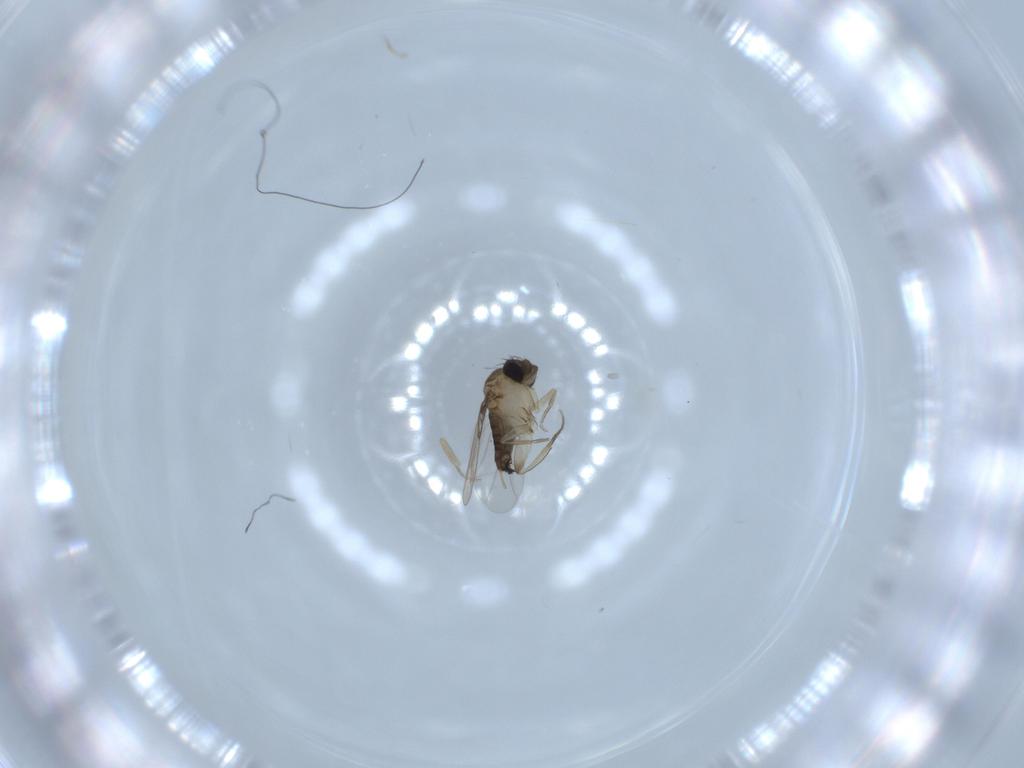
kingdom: Animalia
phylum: Arthropoda
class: Insecta
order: Diptera
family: Phoridae
